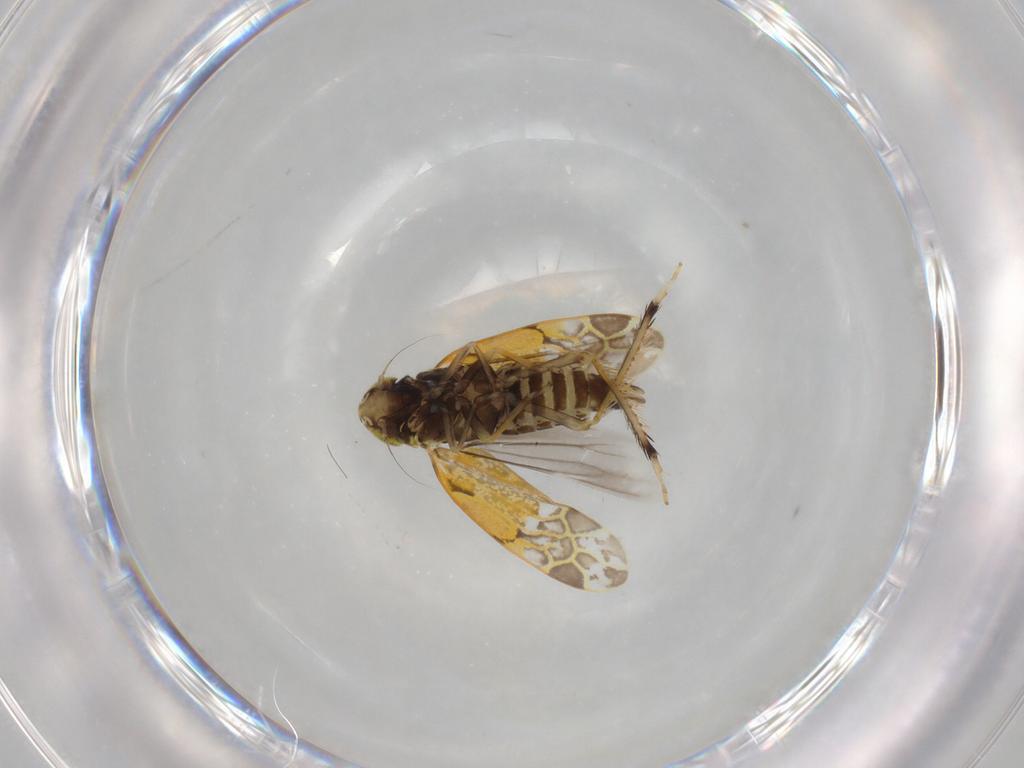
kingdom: Animalia
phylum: Arthropoda
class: Insecta
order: Hemiptera
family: Cicadellidae
